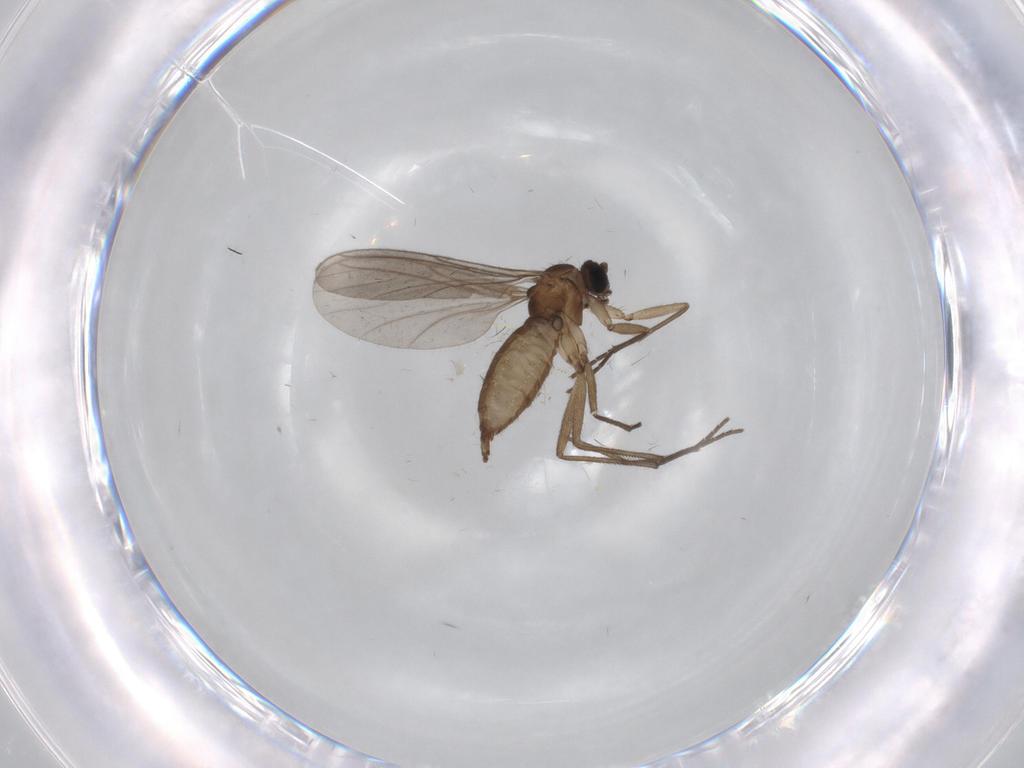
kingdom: Animalia
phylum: Arthropoda
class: Insecta
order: Diptera
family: Sciaridae
